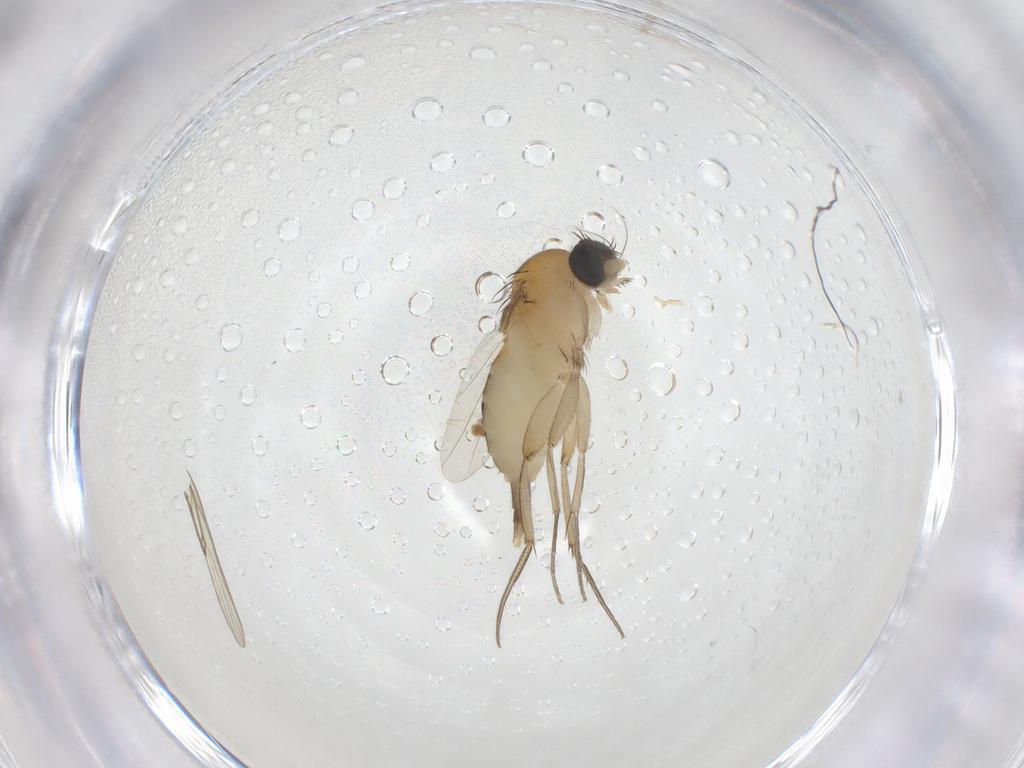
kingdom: Animalia
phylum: Arthropoda
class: Insecta
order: Diptera
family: Phoridae
